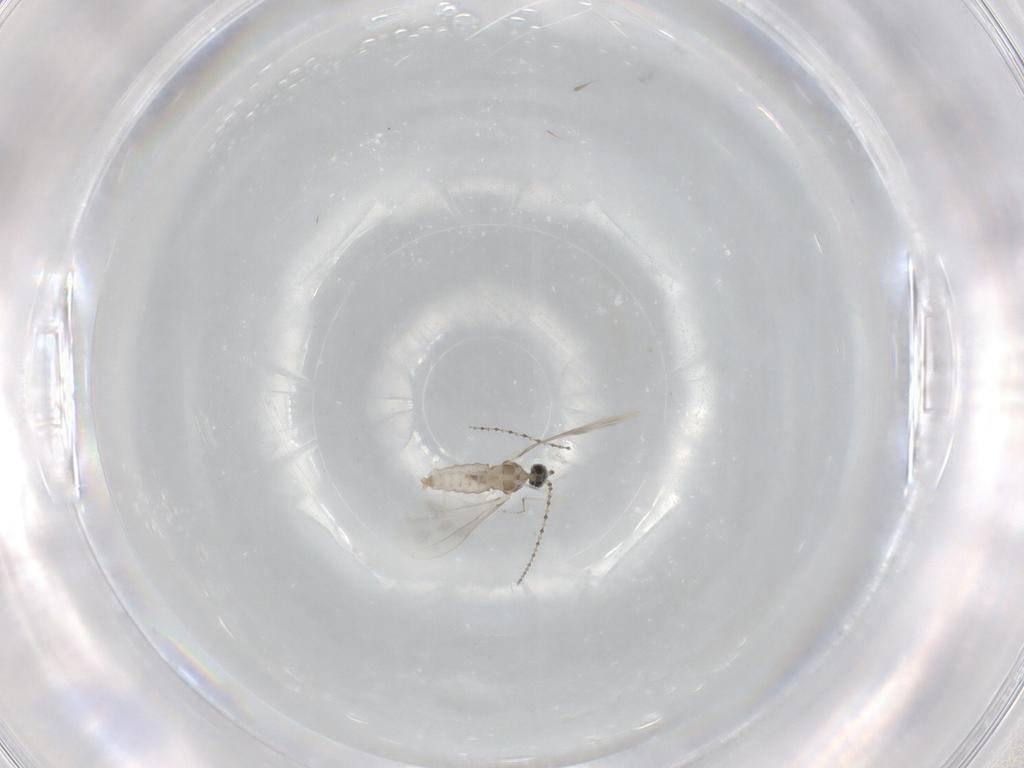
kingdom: Animalia
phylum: Arthropoda
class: Insecta
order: Diptera
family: Cecidomyiidae
